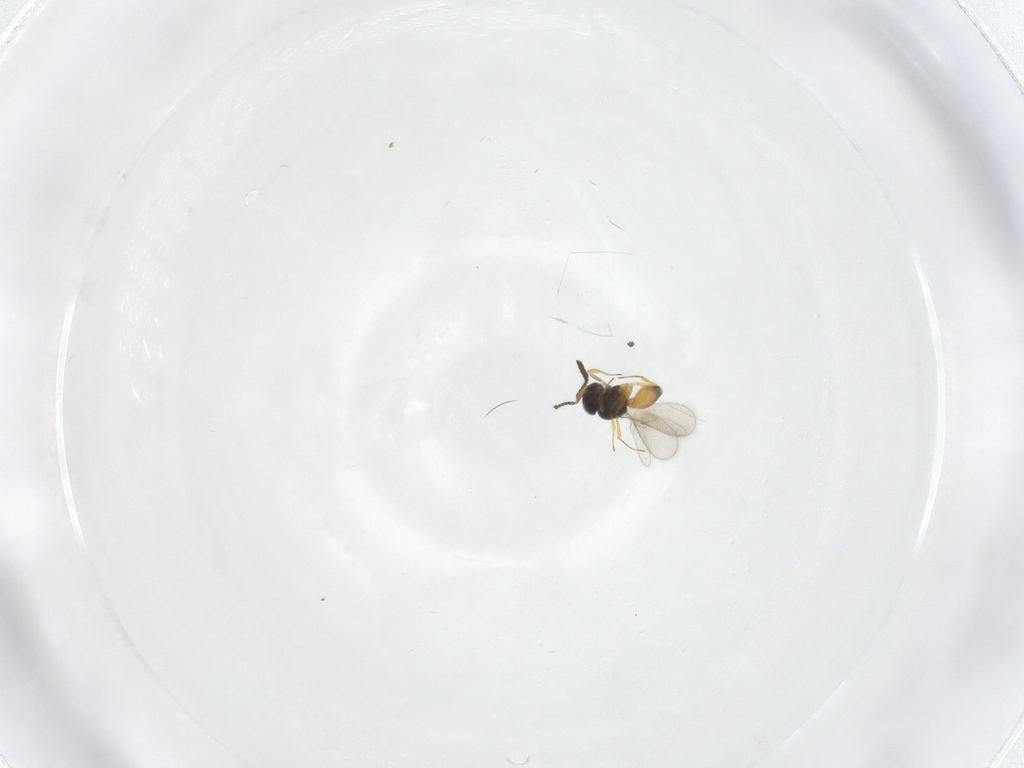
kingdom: Animalia
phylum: Arthropoda
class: Insecta
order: Hymenoptera
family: Scelionidae
